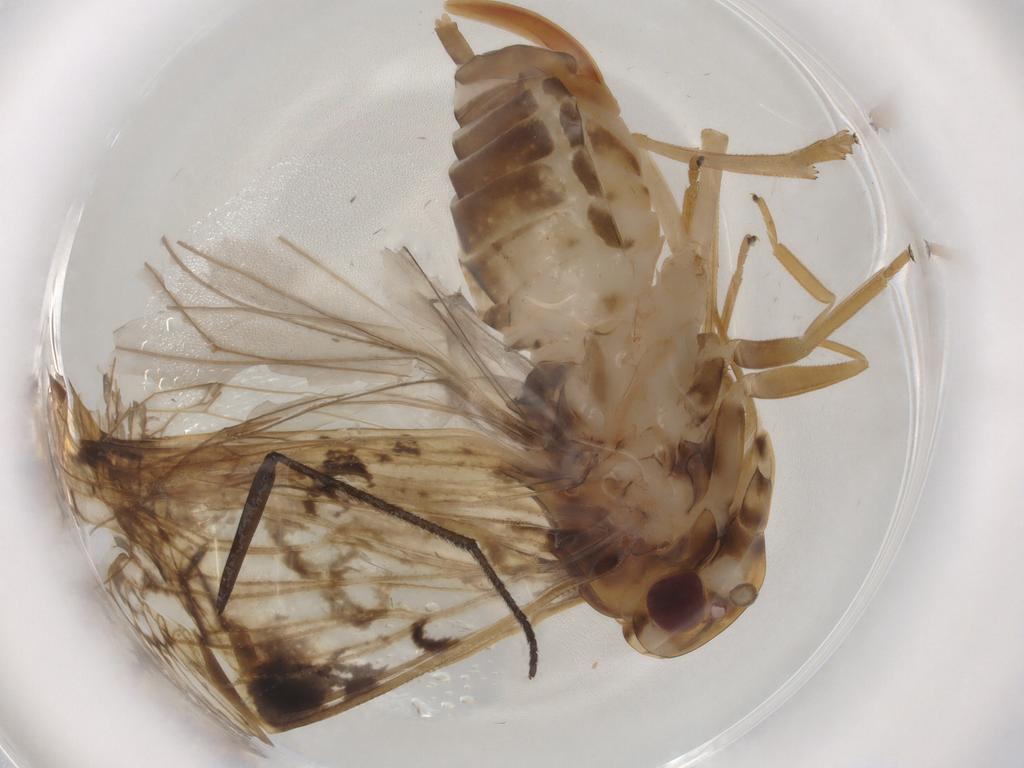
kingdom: Animalia
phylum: Arthropoda
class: Insecta
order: Hemiptera
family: Cixiidae
